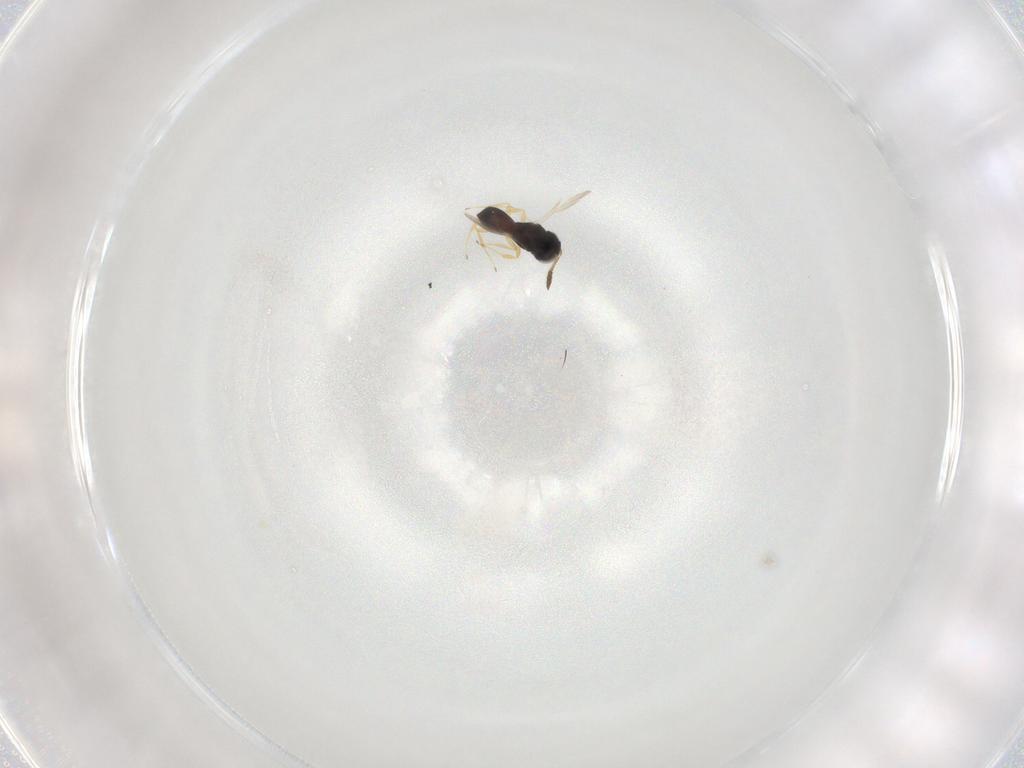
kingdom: Animalia
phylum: Arthropoda
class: Insecta
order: Hymenoptera
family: Scelionidae
